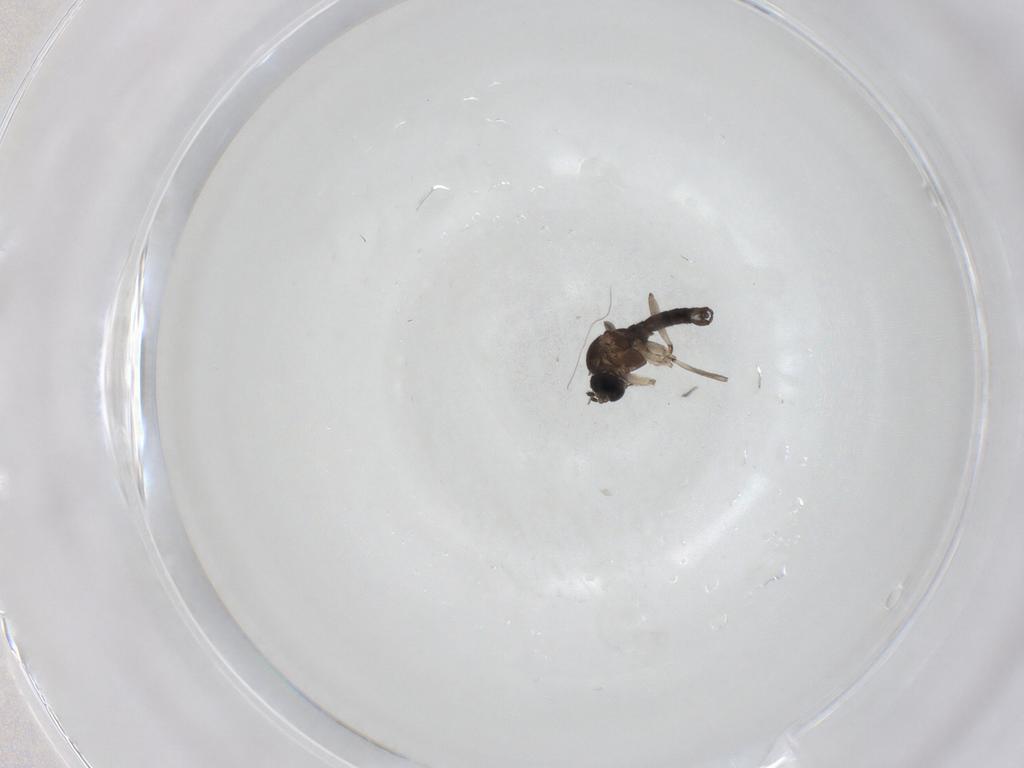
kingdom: Animalia
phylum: Arthropoda
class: Insecta
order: Diptera
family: Sciaridae
